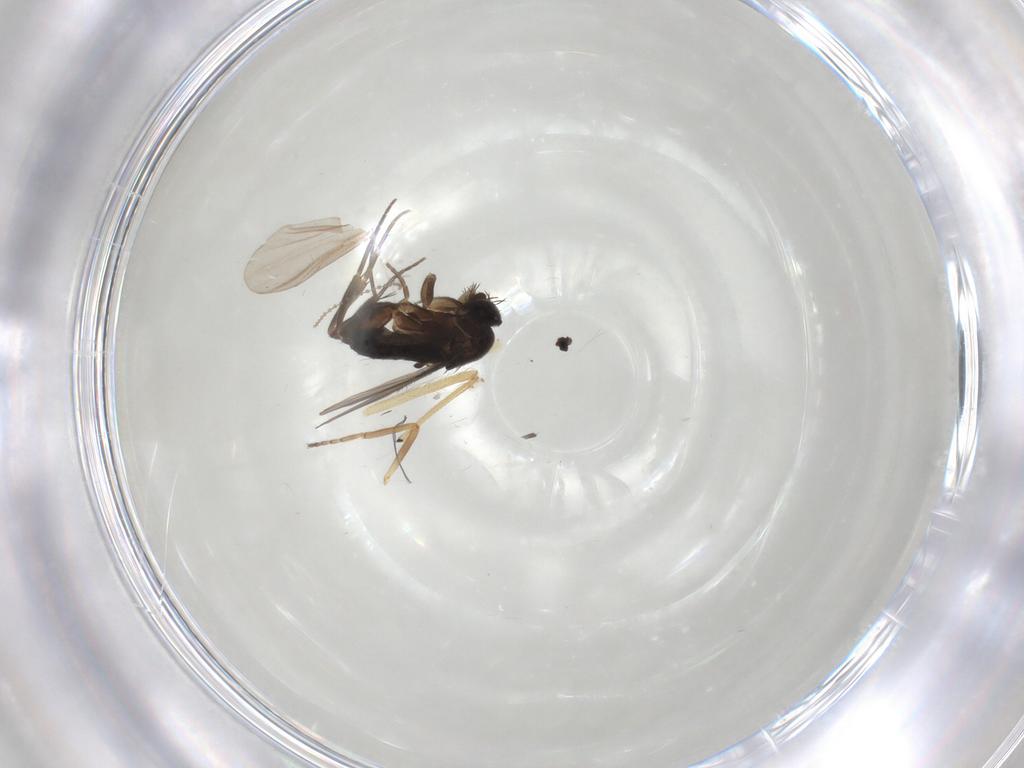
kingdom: Animalia
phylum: Arthropoda
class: Insecta
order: Diptera
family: Phoridae
